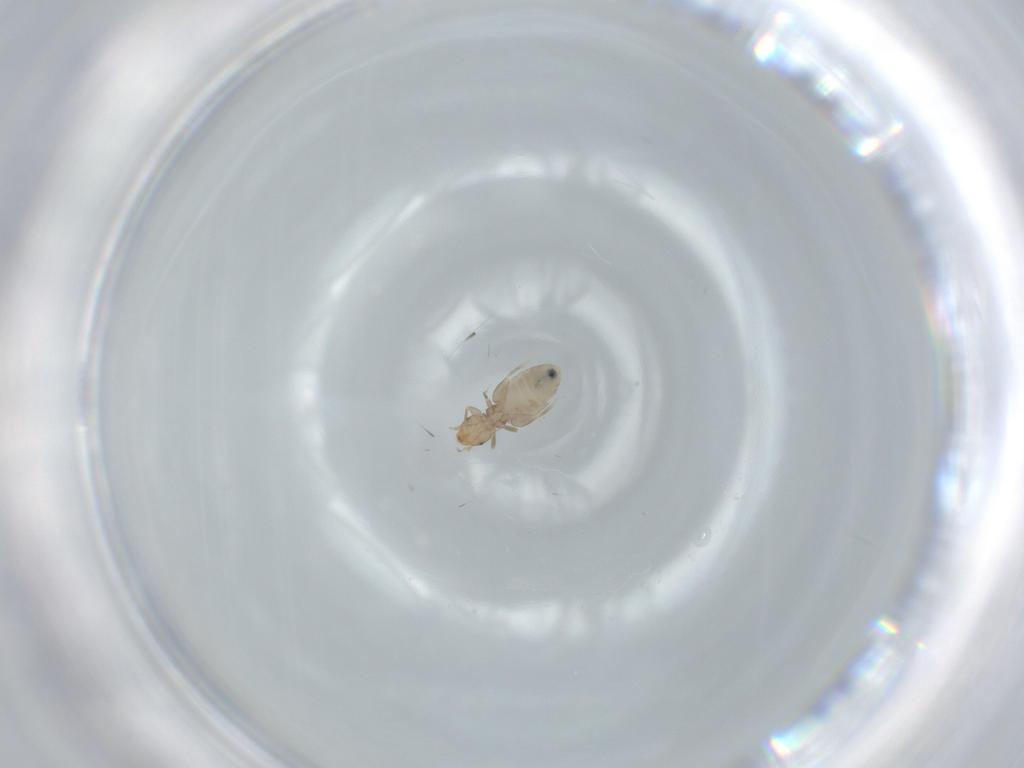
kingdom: Animalia
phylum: Arthropoda
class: Insecta
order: Psocodea
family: Liposcelididae
